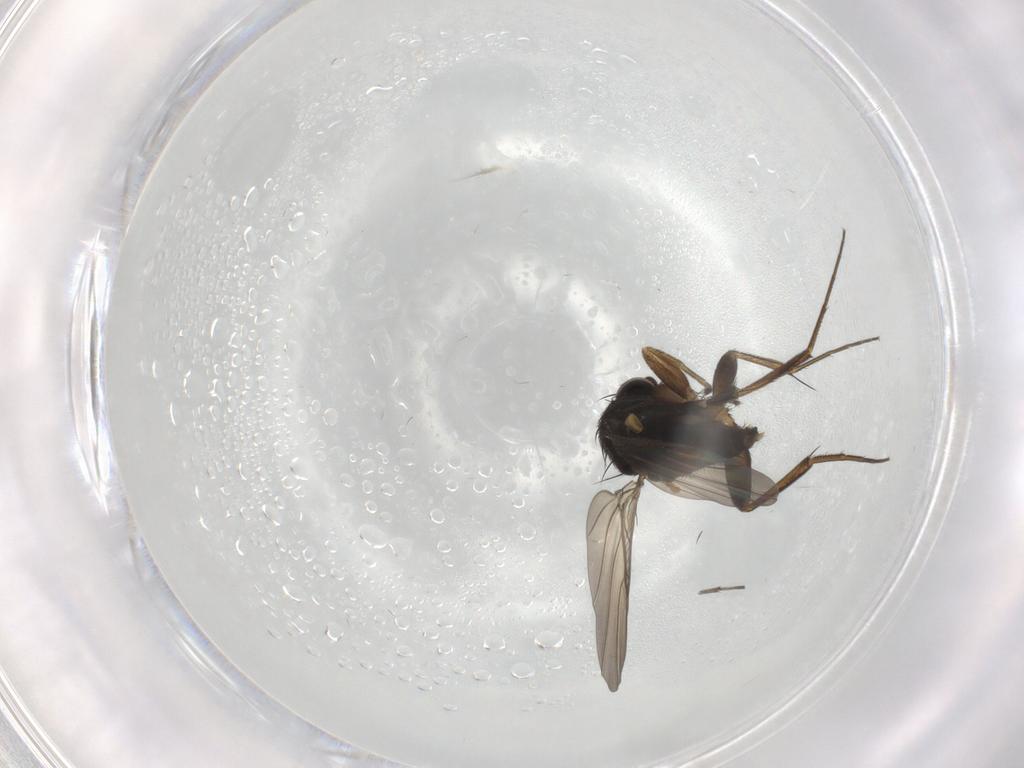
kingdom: Animalia
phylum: Arthropoda
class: Insecta
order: Diptera
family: Phoridae
